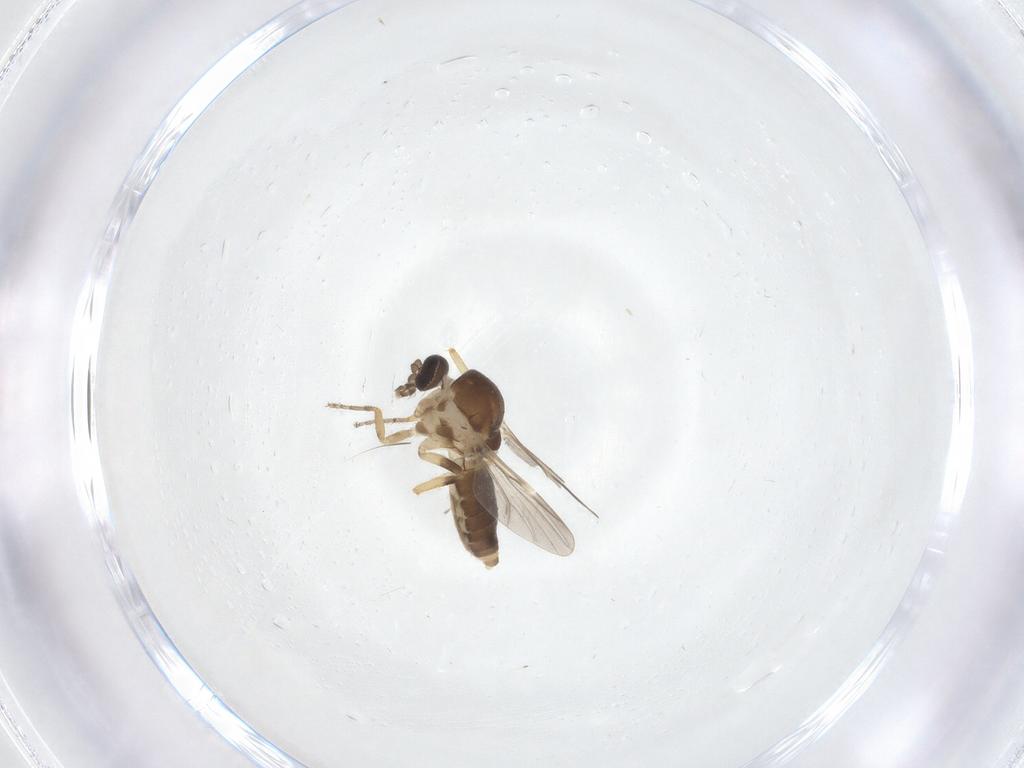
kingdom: Animalia
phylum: Arthropoda
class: Insecta
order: Diptera
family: Ceratopogonidae
